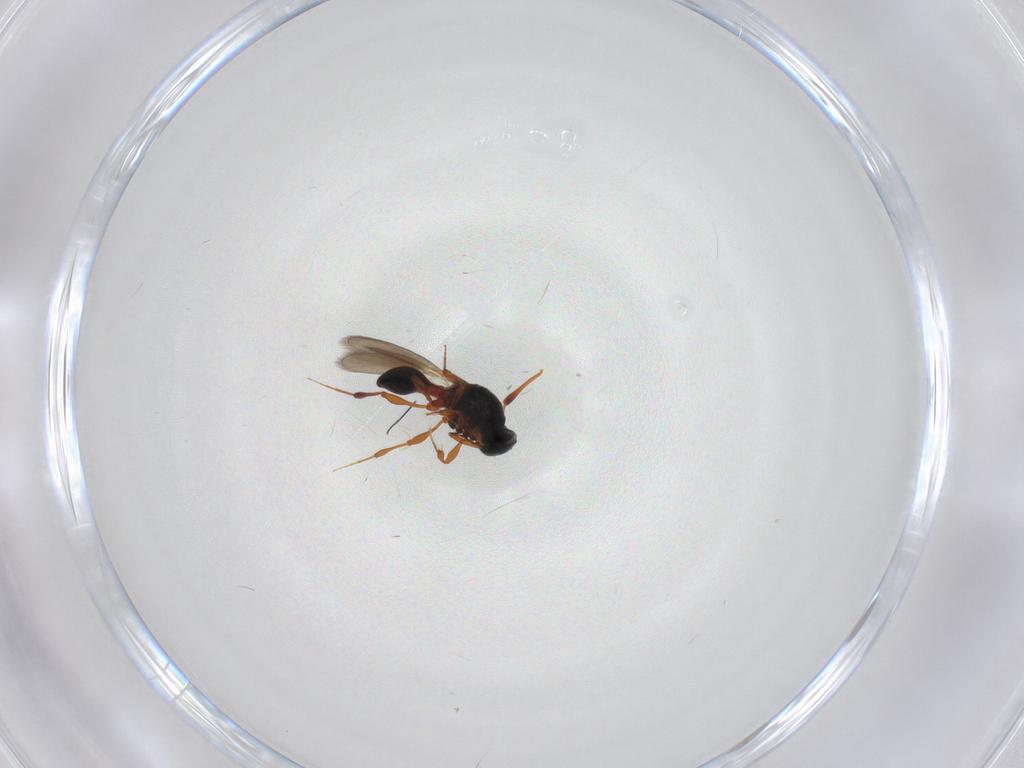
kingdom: Animalia
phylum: Arthropoda
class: Insecta
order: Hymenoptera
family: Platygastridae
